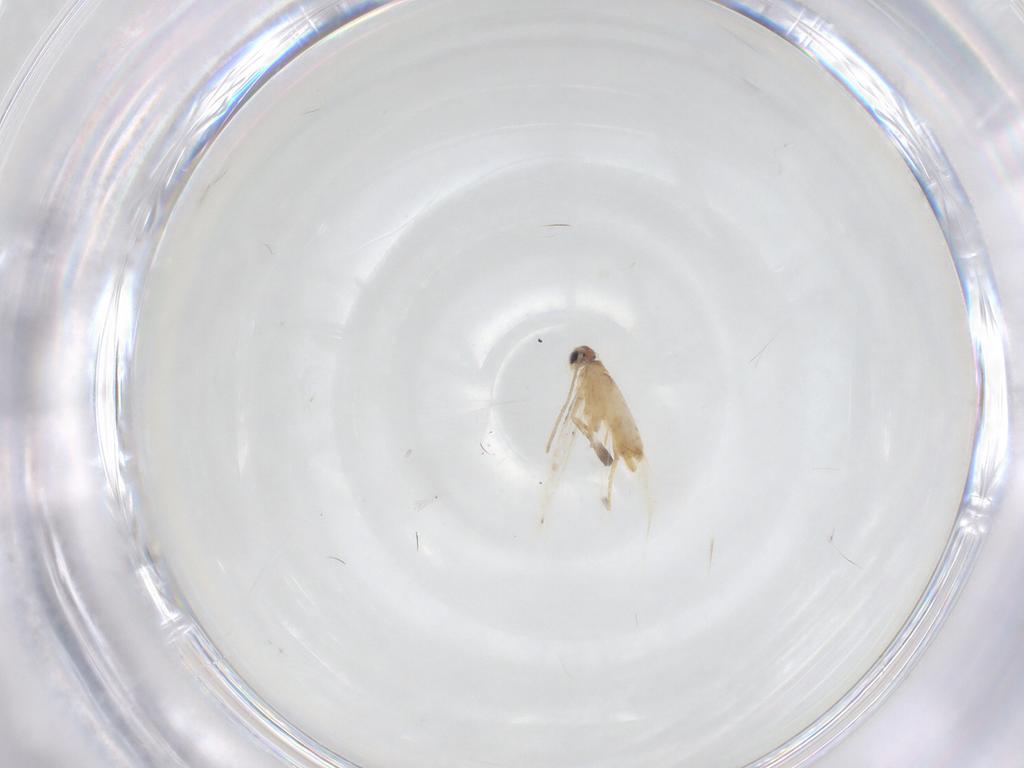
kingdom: Animalia
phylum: Arthropoda
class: Insecta
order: Lepidoptera
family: Nepticulidae
